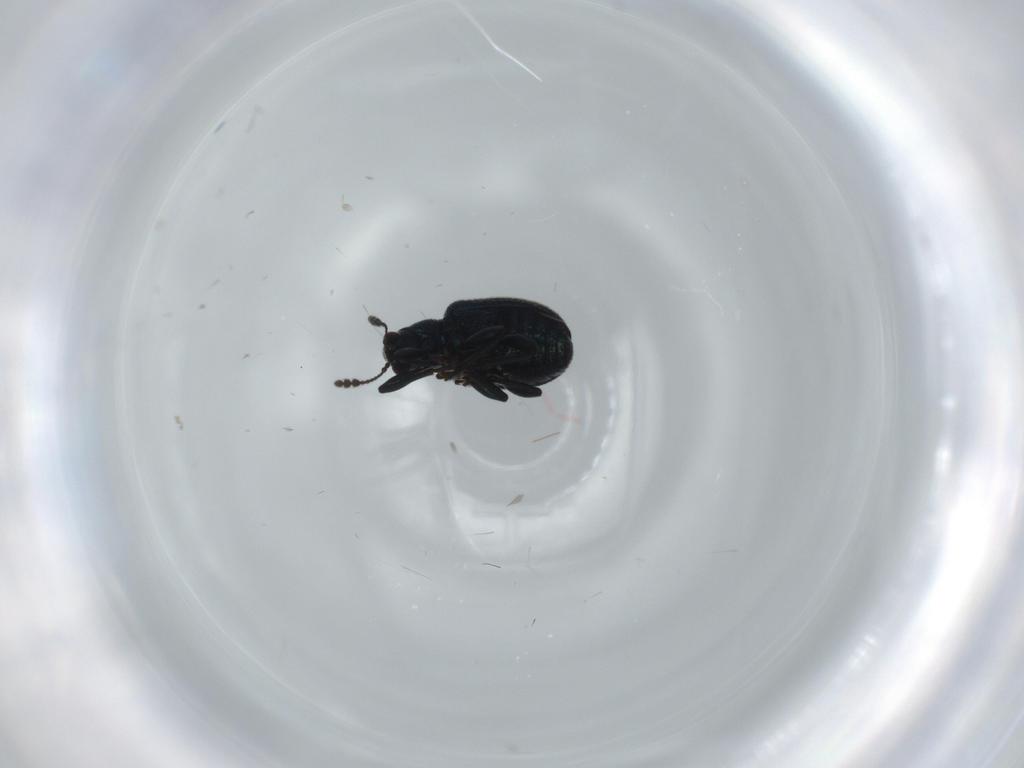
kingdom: Animalia
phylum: Arthropoda
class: Insecta
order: Coleoptera
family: Attelabidae
